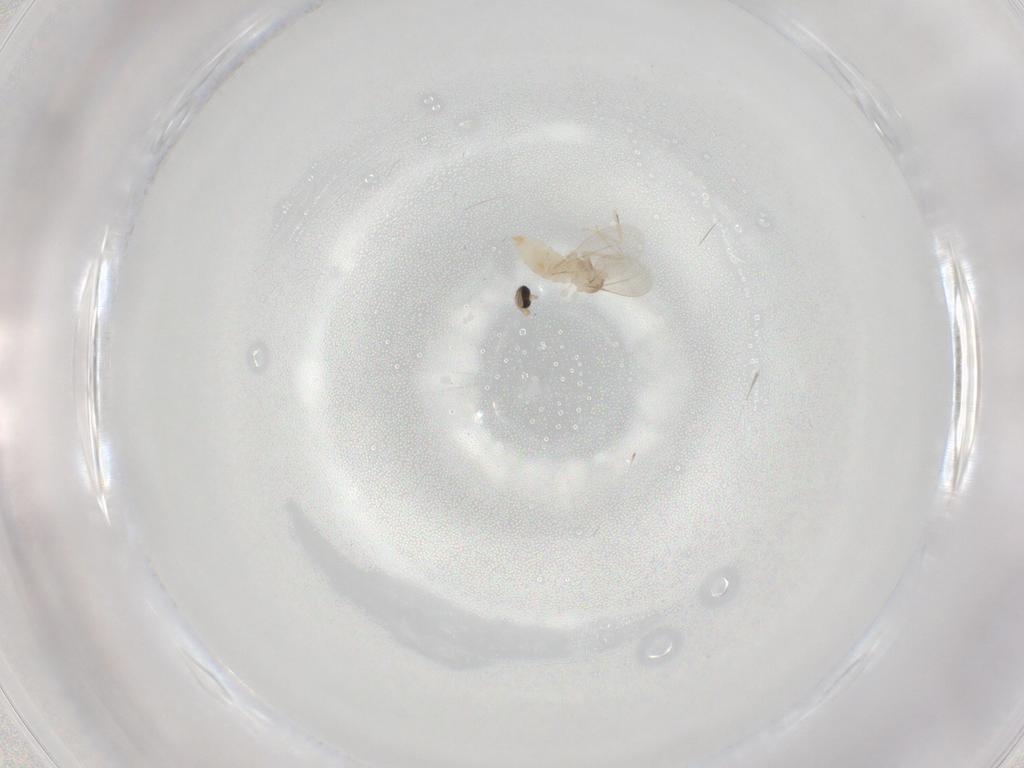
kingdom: Animalia
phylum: Arthropoda
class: Insecta
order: Diptera
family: Cecidomyiidae
